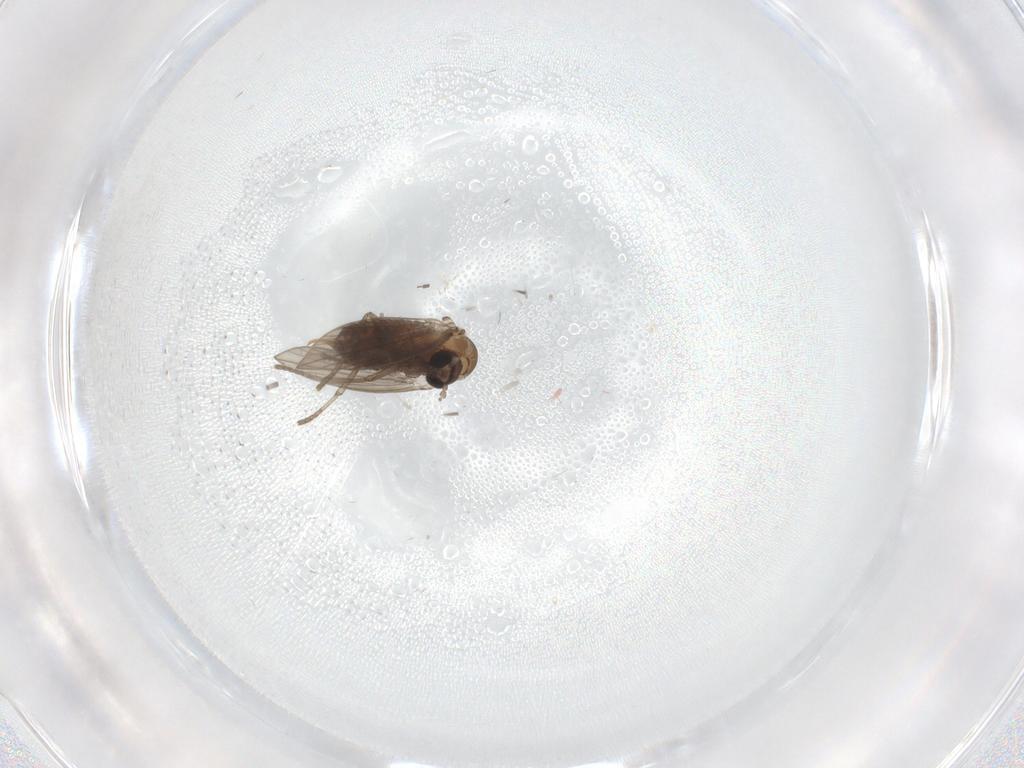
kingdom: Animalia
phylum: Arthropoda
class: Insecta
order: Diptera
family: Psychodidae
